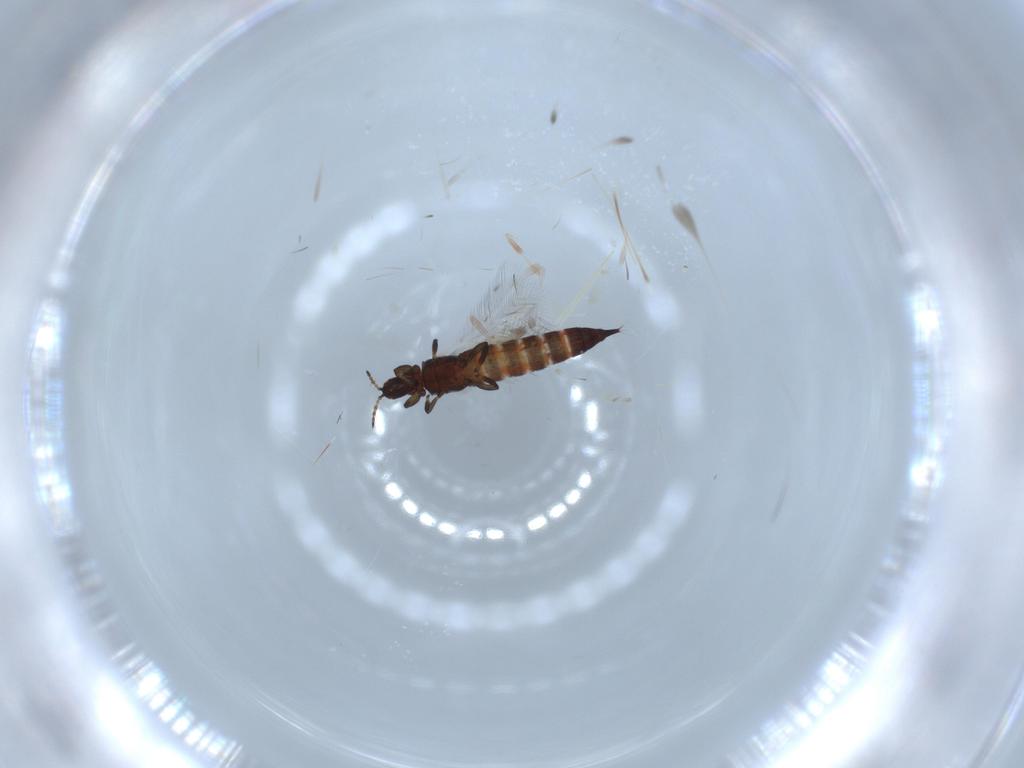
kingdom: Animalia
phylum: Arthropoda
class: Insecta
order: Thysanoptera
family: Phlaeothripidae
